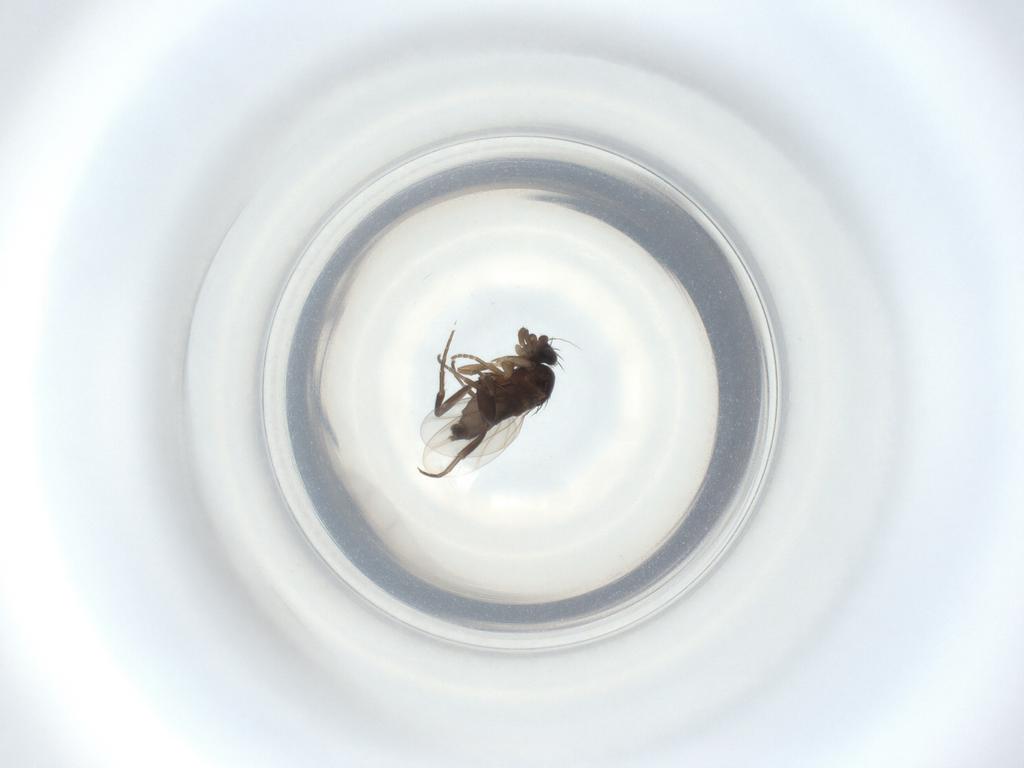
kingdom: Animalia
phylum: Arthropoda
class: Insecta
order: Diptera
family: Phoridae
